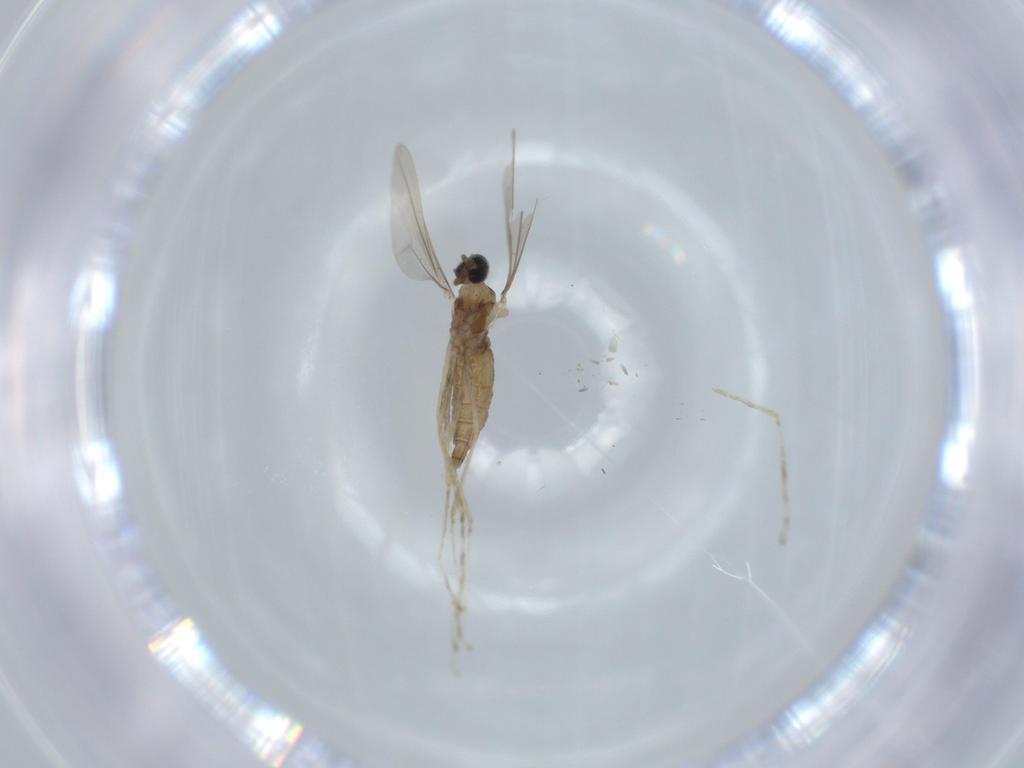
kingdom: Animalia
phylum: Arthropoda
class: Insecta
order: Diptera
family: Cecidomyiidae
